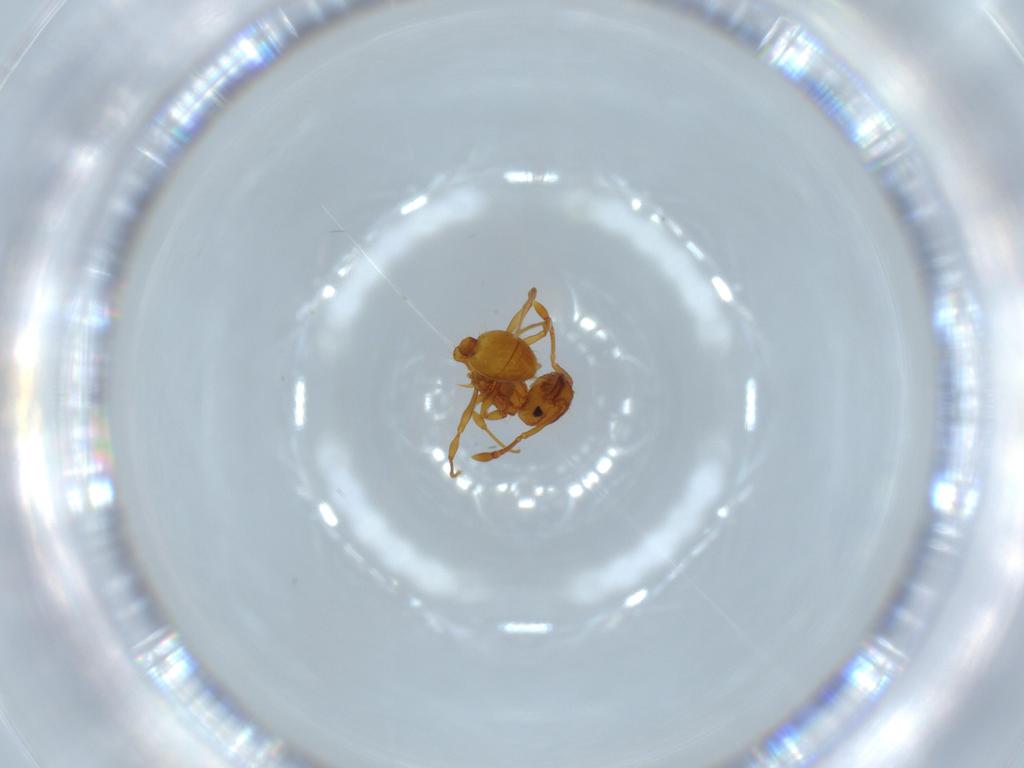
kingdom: Animalia
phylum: Arthropoda
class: Insecta
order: Hymenoptera
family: Formicidae
